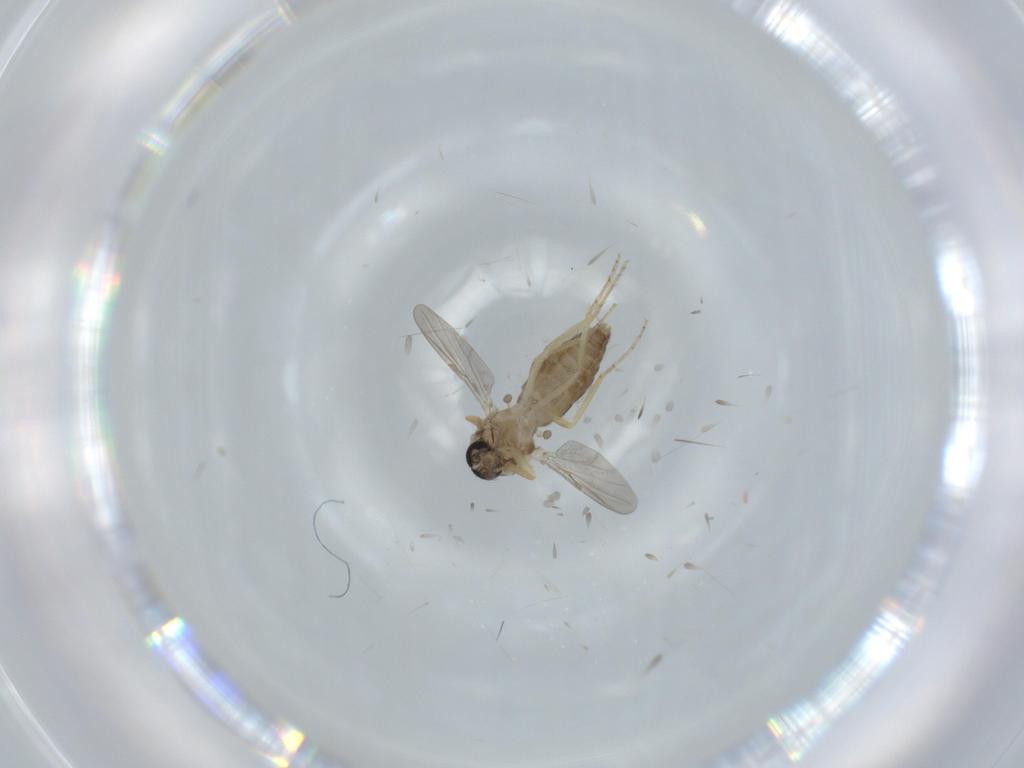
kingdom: Animalia
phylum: Arthropoda
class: Insecta
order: Diptera
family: Ceratopogonidae
